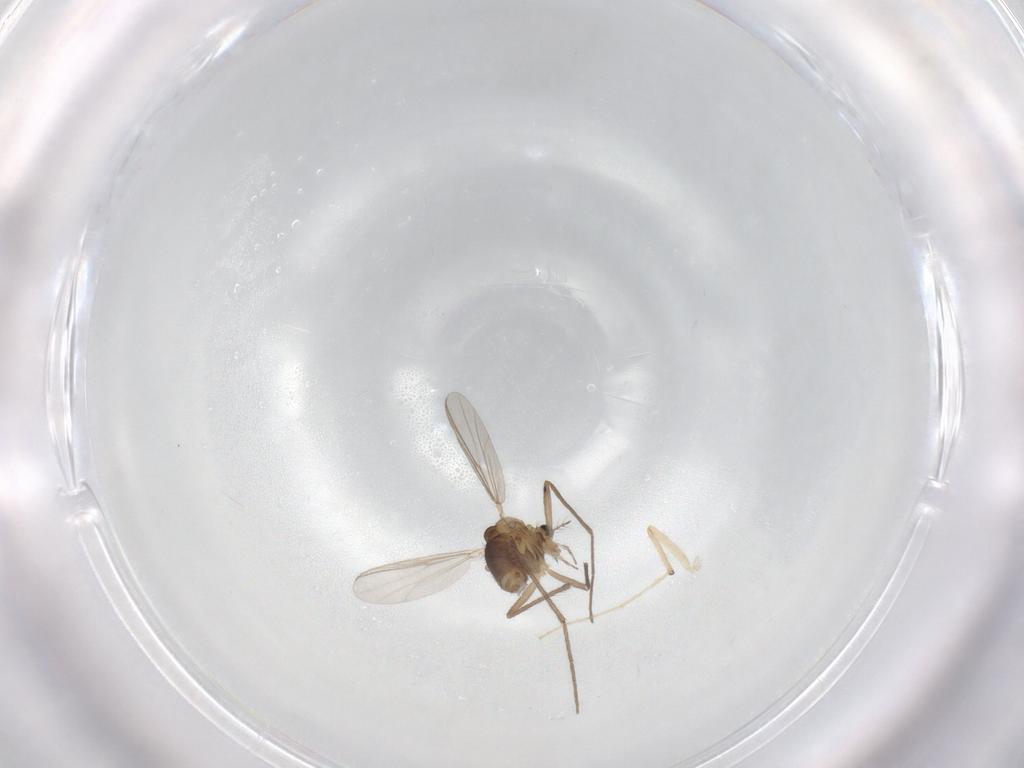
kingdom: Animalia
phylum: Arthropoda
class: Insecta
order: Diptera
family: Chironomidae
